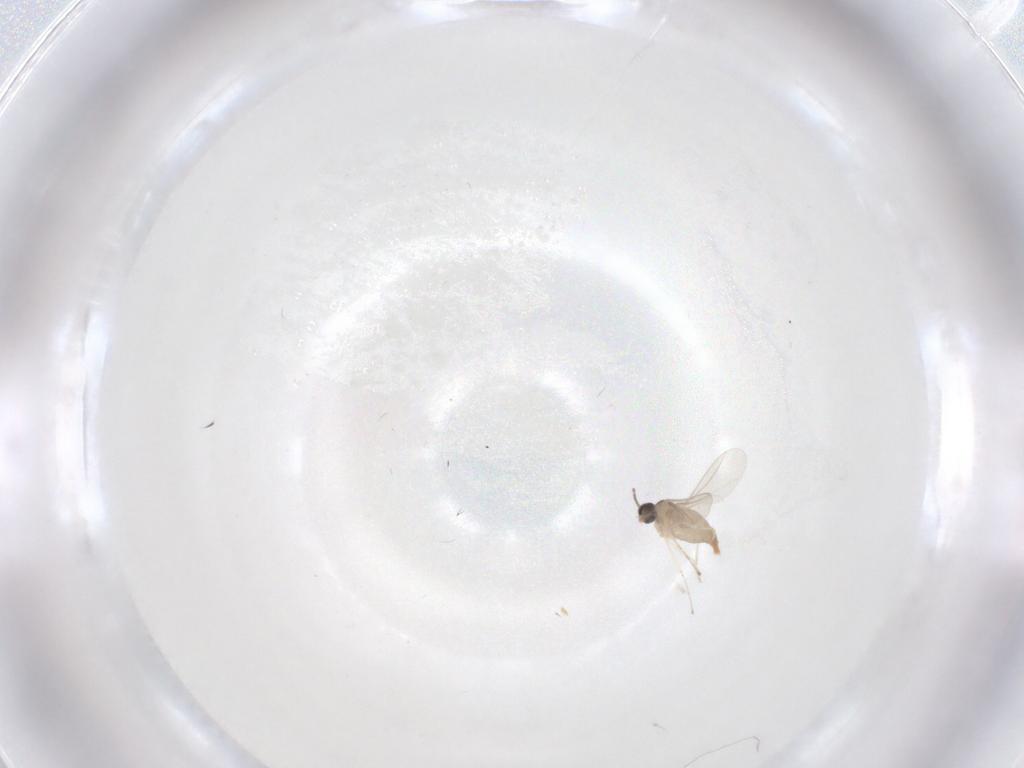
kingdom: Animalia
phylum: Arthropoda
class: Insecta
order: Diptera
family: Cecidomyiidae
